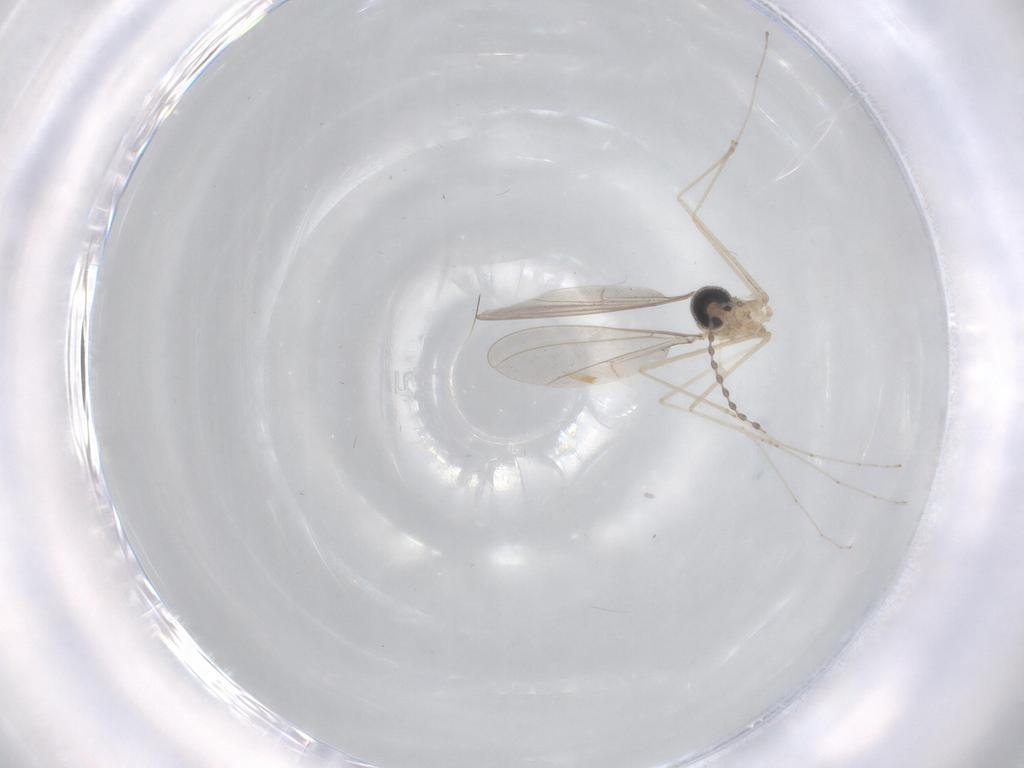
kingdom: Animalia
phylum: Arthropoda
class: Insecta
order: Diptera
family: Cecidomyiidae
